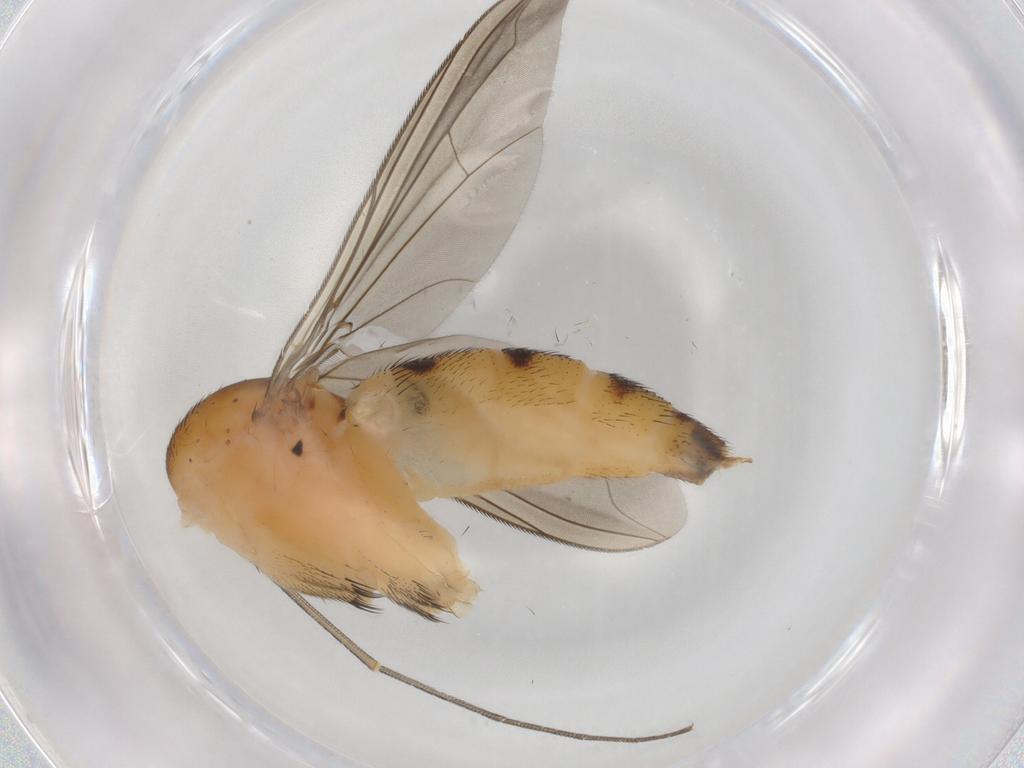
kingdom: Animalia
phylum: Arthropoda
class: Insecta
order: Diptera
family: Dolichopodidae
